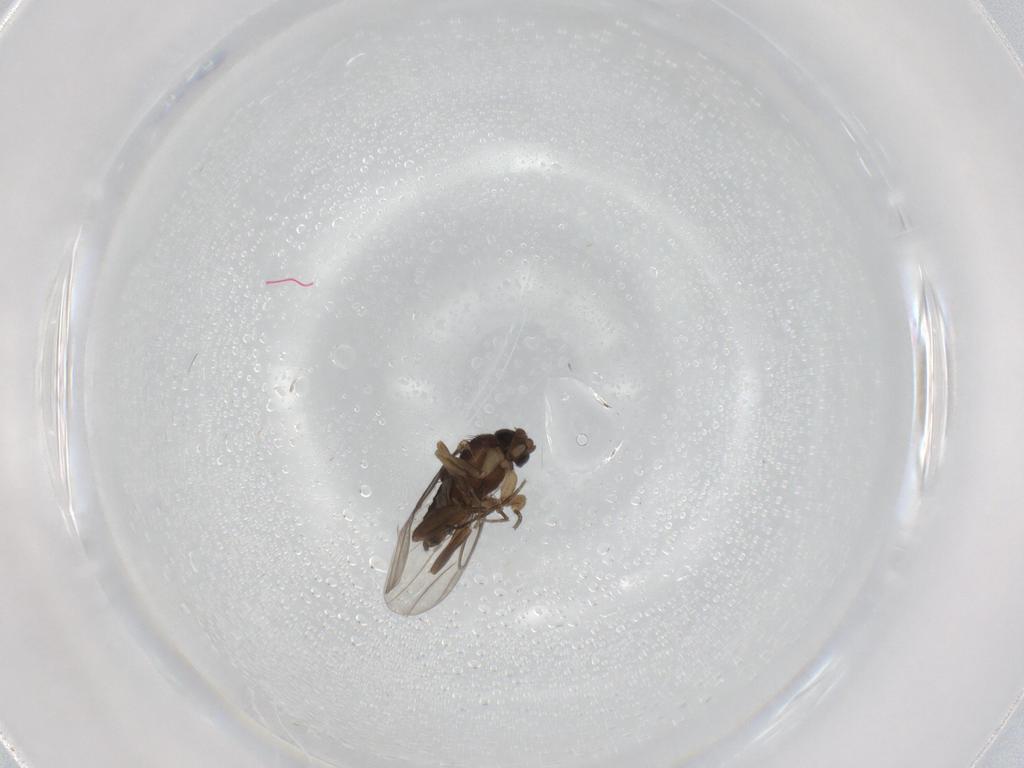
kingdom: Animalia
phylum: Arthropoda
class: Insecta
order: Diptera
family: Phoridae
